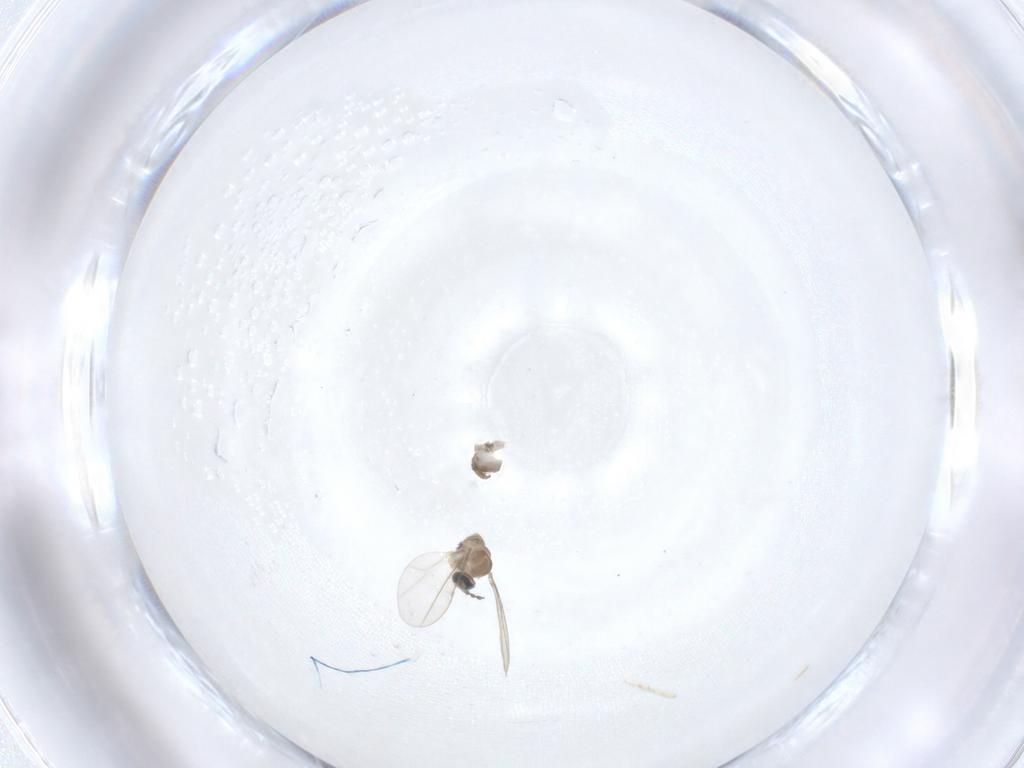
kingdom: Animalia
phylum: Arthropoda
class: Insecta
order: Diptera
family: Cecidomyiidae
